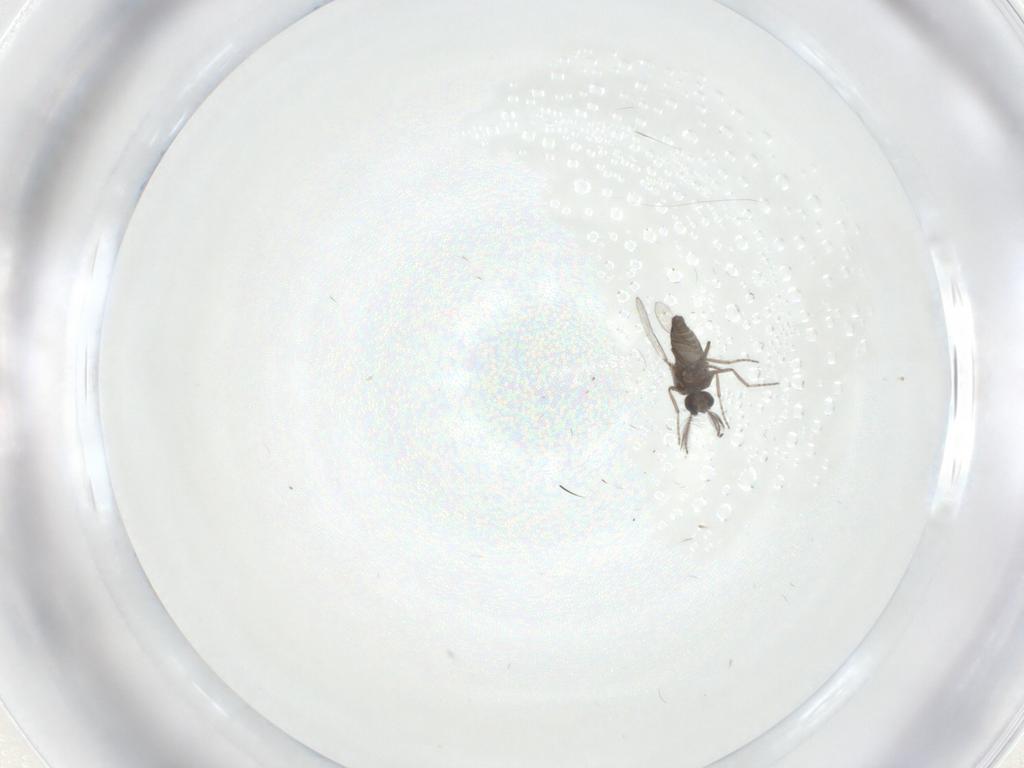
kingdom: Animalia
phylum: Arthropoda
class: Insecta
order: Diptera
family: Ceratopogonidae
